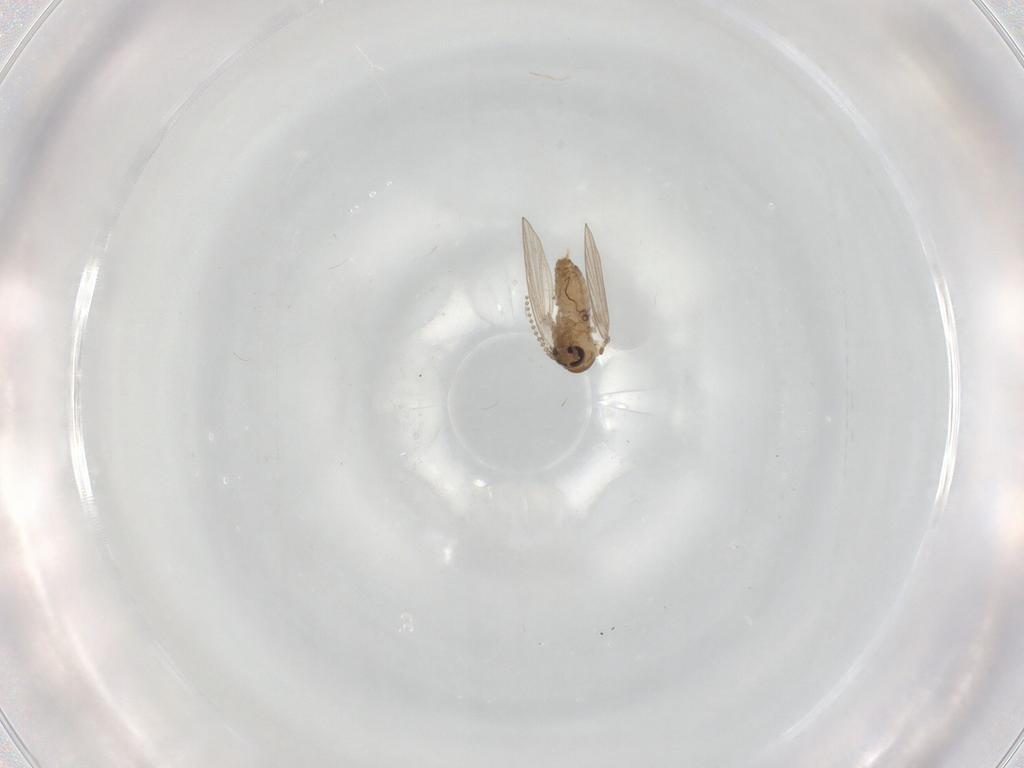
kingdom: Animalia
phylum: Arthropoda
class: Insecta
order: Diptera
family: Psychodidae
